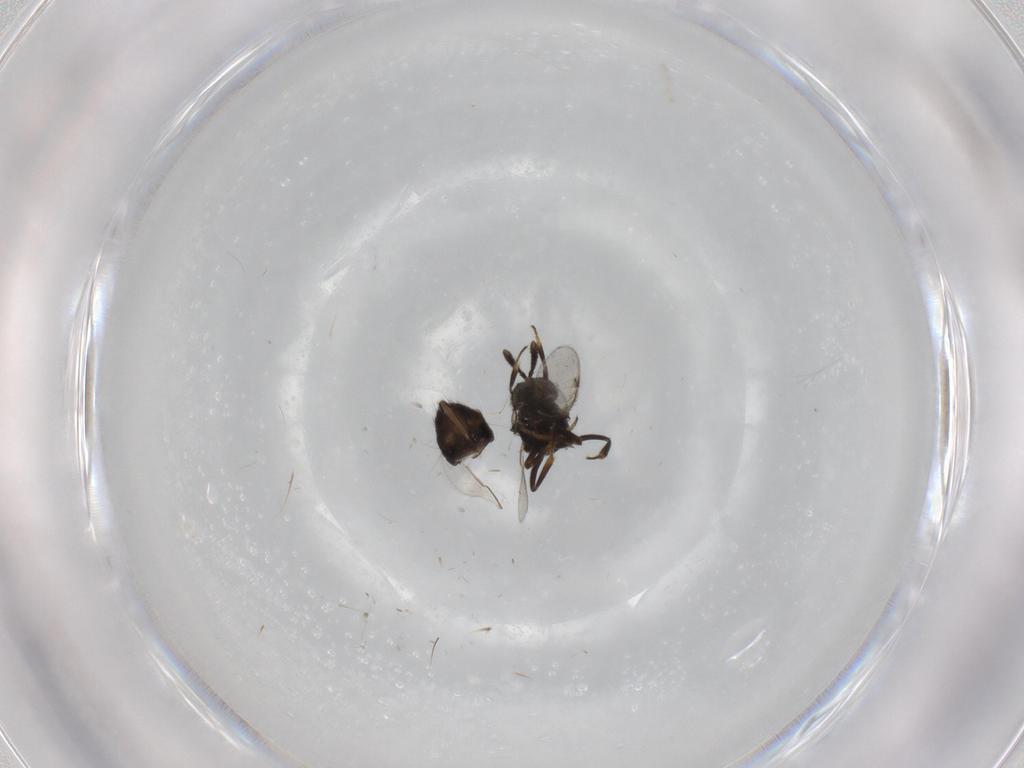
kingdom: Animalia
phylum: Arthropoda
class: Insecta
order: Hymenoptera
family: Encyrtidae
